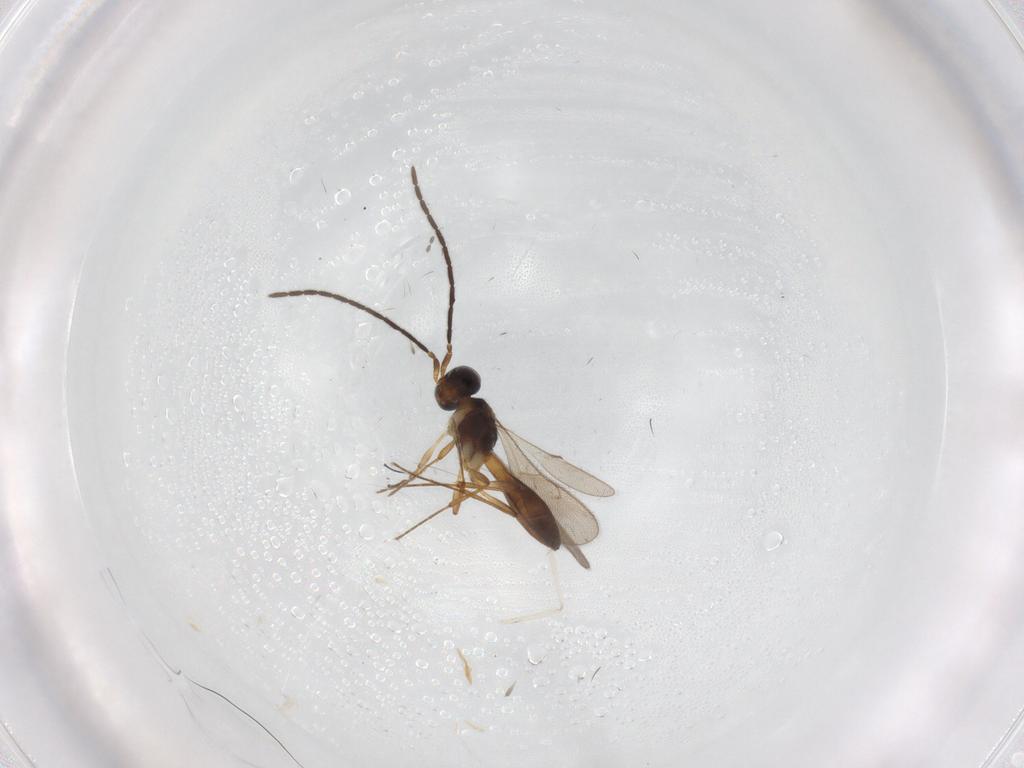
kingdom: Animalia
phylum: Arthropoda
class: Insecta
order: Hymenoptera
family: Scelionidae
